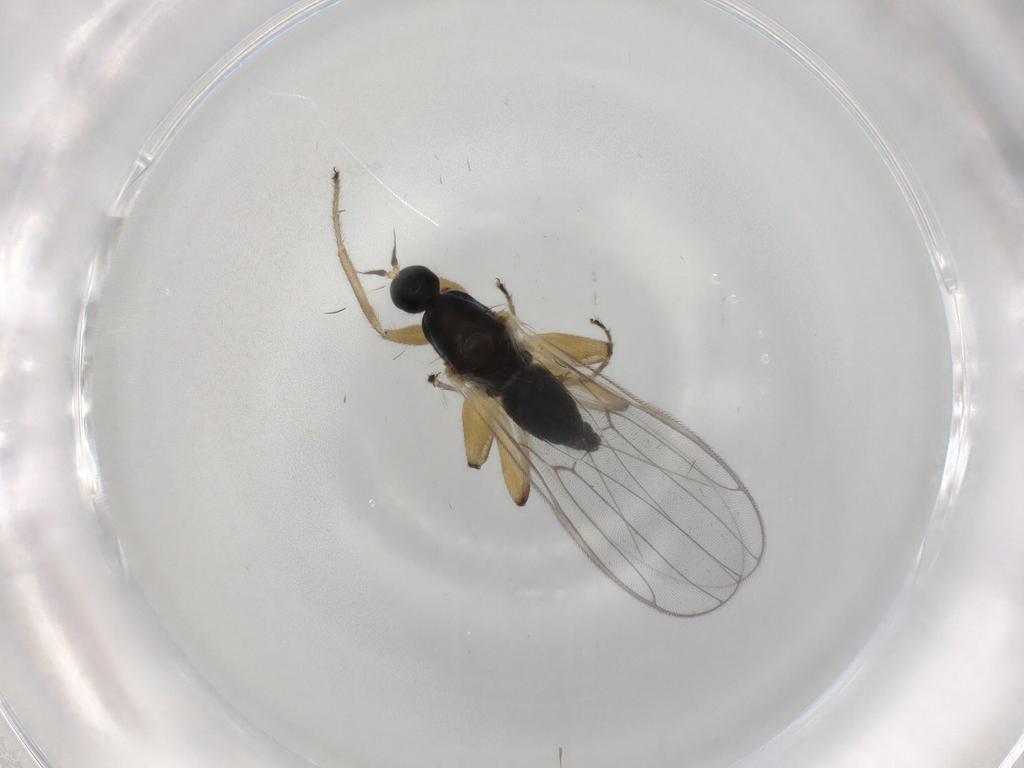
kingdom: Animalia
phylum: Arthropoda
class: Insecta
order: Diptera
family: Hybotidae
